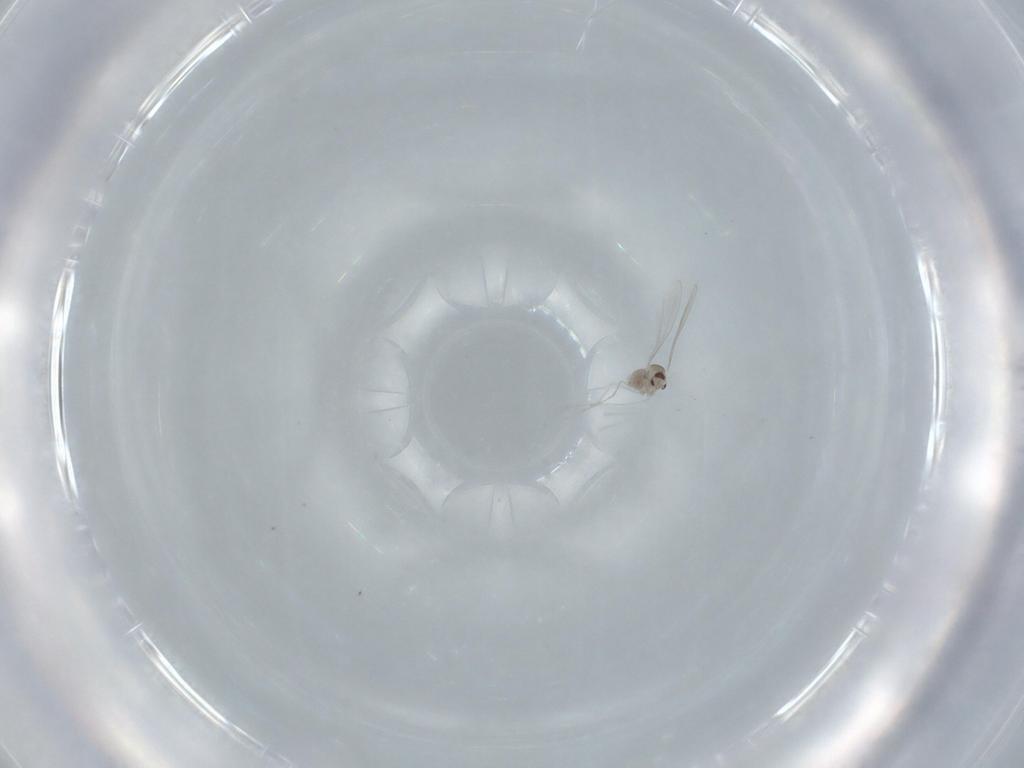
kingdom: Animalia
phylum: Arthropoda
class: Insecta
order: Diptera
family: Cecidomyiidae
